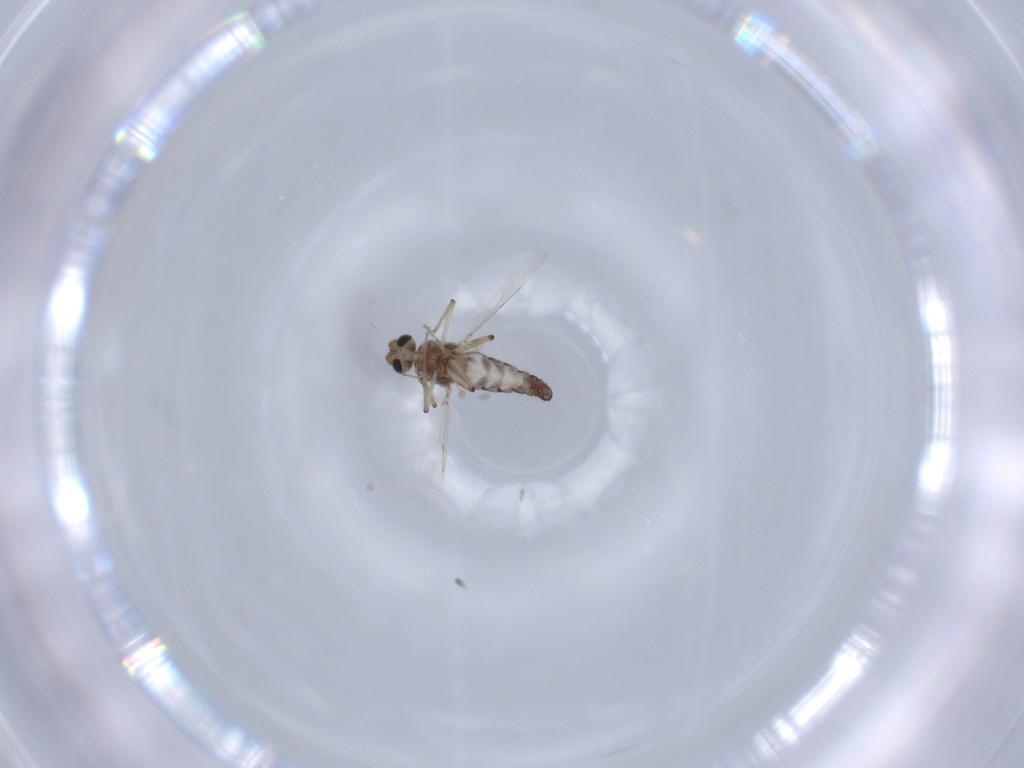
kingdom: Animalia
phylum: Arthropoda
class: Insecta
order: Diptera
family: Ceratopogonidae
